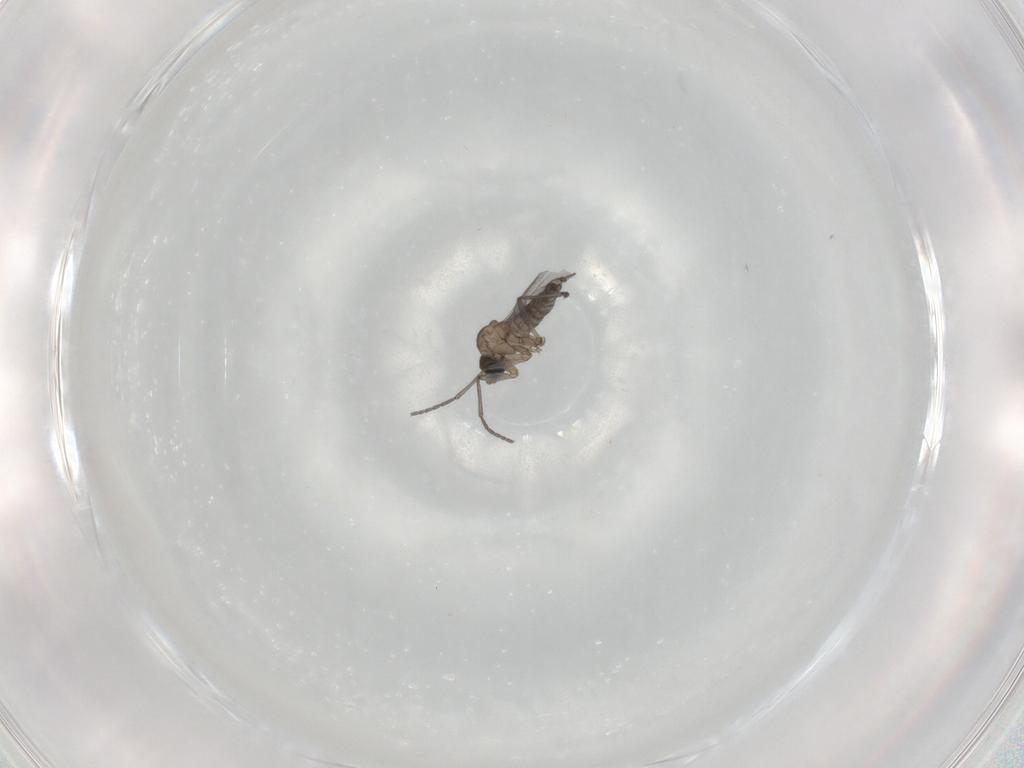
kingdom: Animalia
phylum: Arthropoda
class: Insecta
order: Diptera
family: Sciaridae
